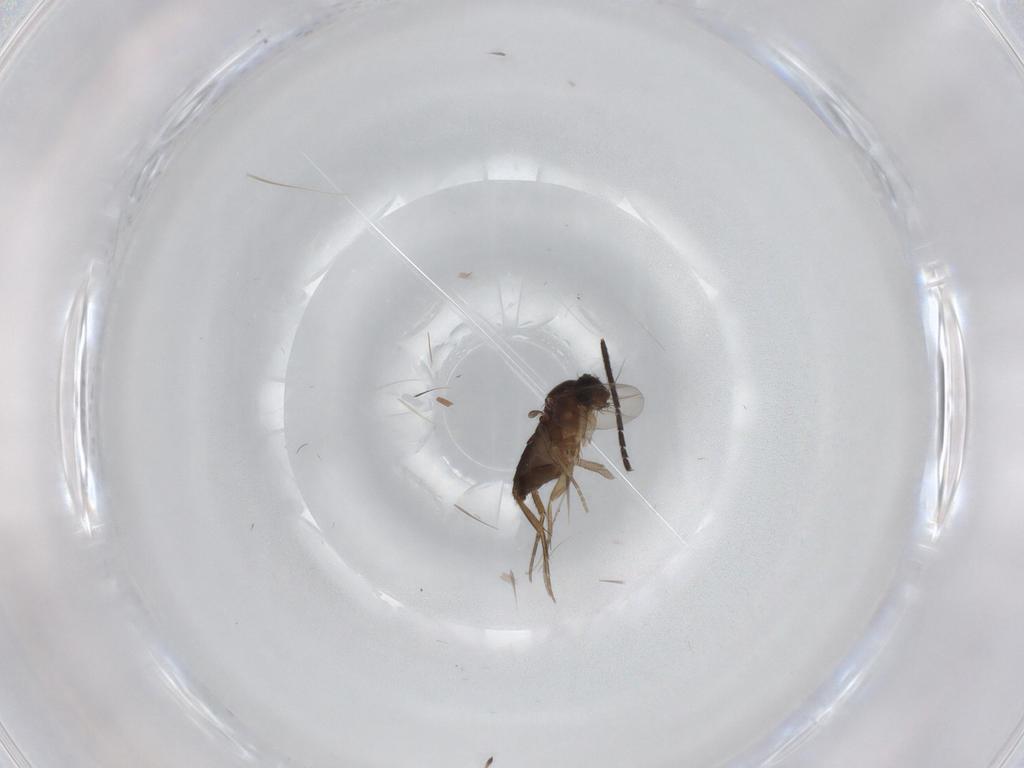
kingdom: Animalia
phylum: Arthropoda
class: Insecta
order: Diptera
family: Phoridae
